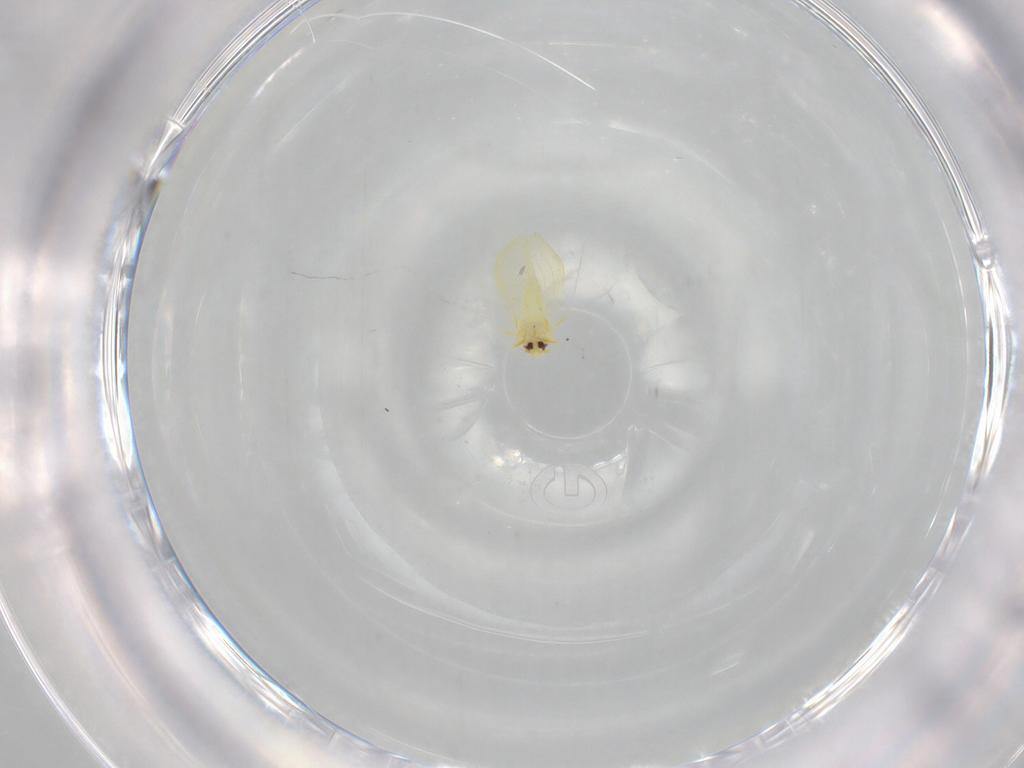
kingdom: Animalia
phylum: Arthropoda
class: Insecta
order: Hemiptera
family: Aleyrodidae
